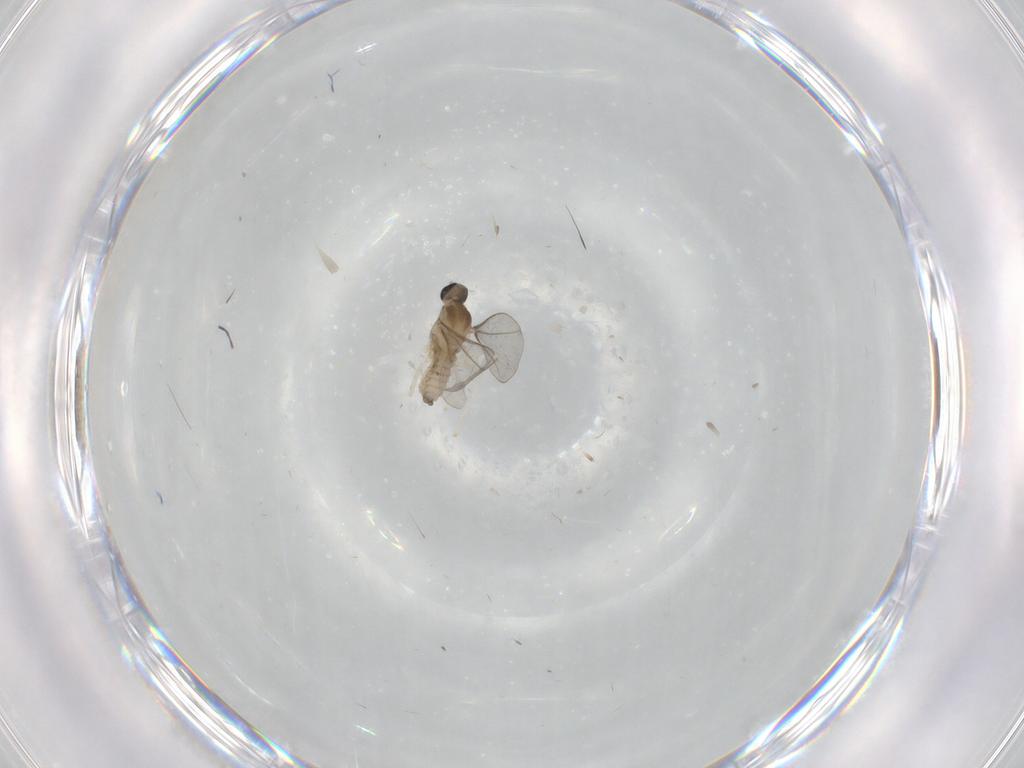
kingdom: Animalia
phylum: Arthropoda
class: Insecta
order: Diptera
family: Cecidomyiidae
